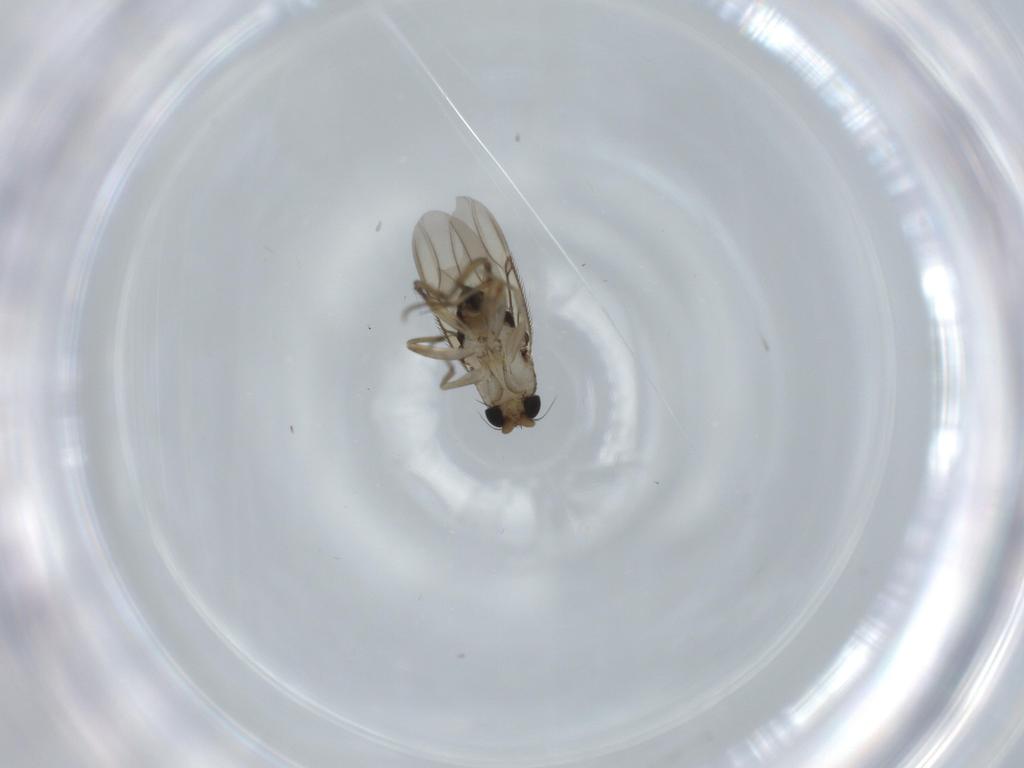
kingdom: Animalia
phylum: Arthropoda
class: Insecta
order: Diptera
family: Phoridae
